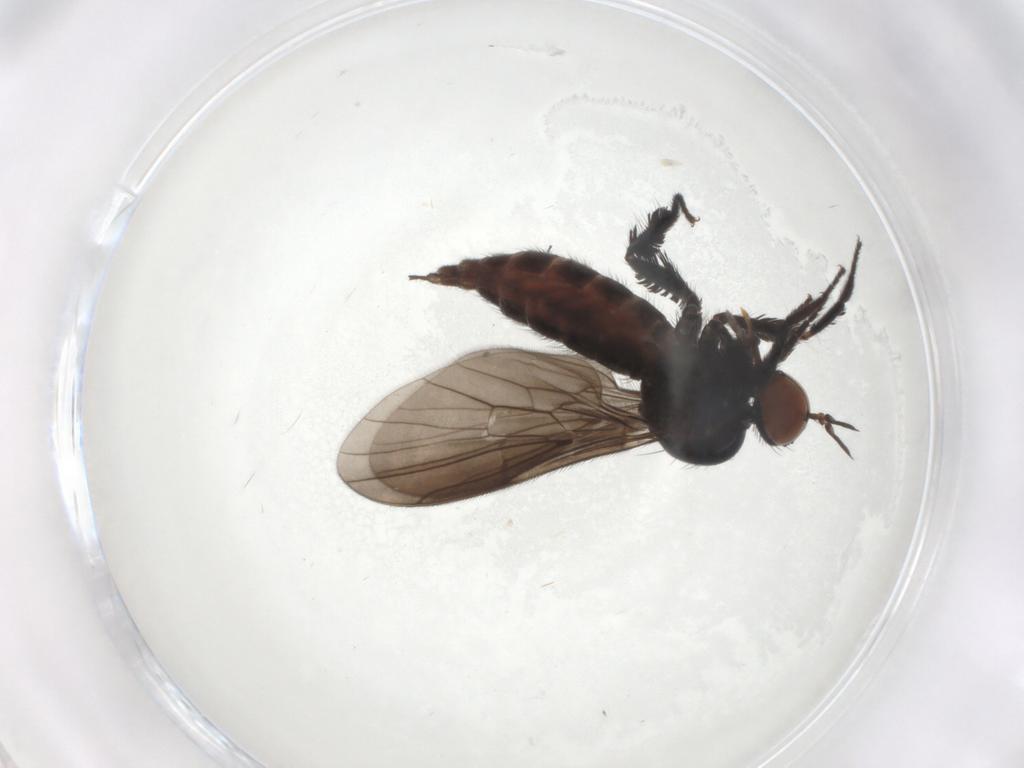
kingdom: Animalia
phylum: Arthropoda
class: Insecta
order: Diptera
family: Empididae
